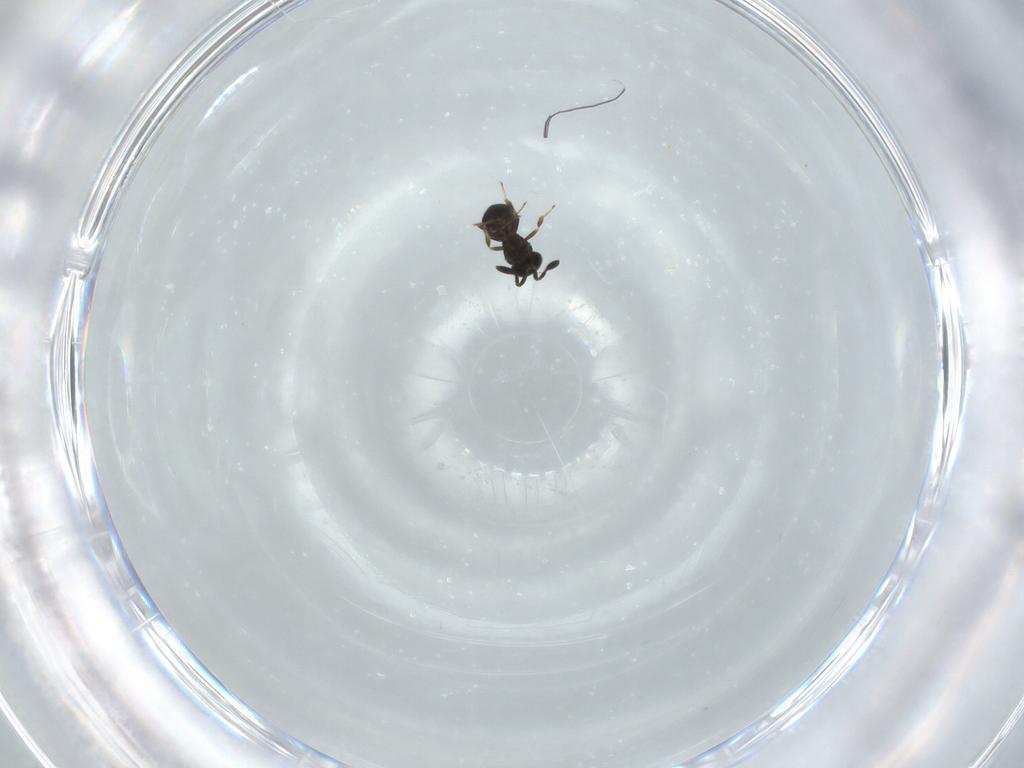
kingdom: Animalia
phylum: Arthropoda
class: Insecta
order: Hymenoptera
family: Scelionidae
